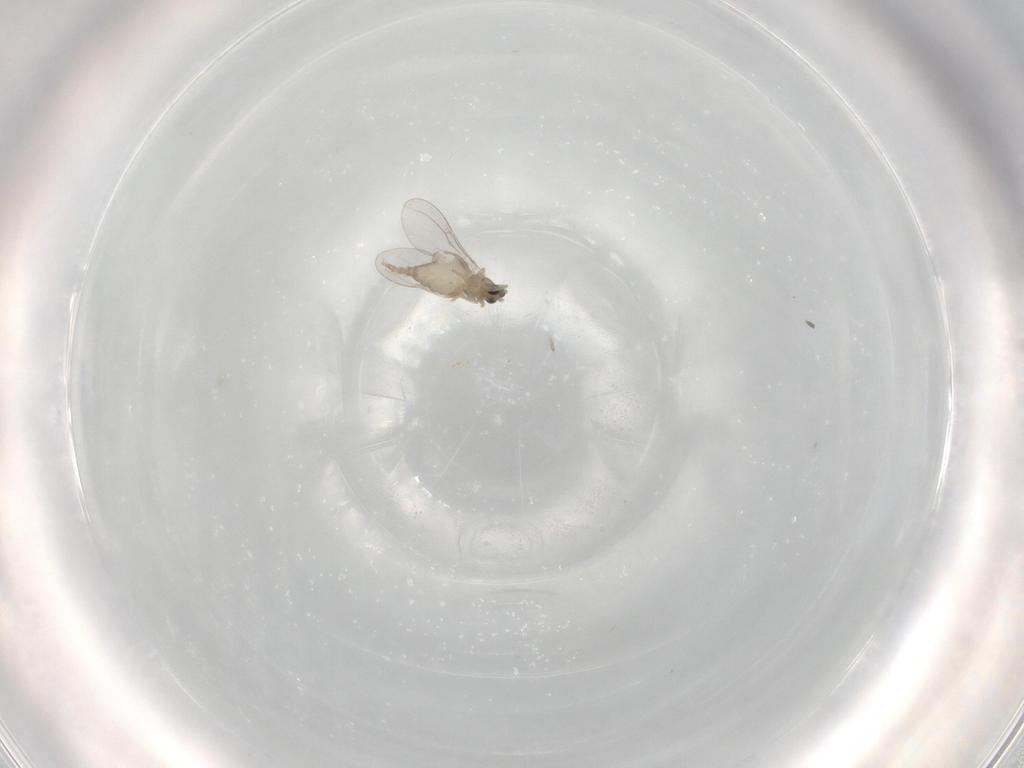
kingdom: Animalia
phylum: Arthropoda
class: Insecta
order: Diptera
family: Cecidomyiidae
